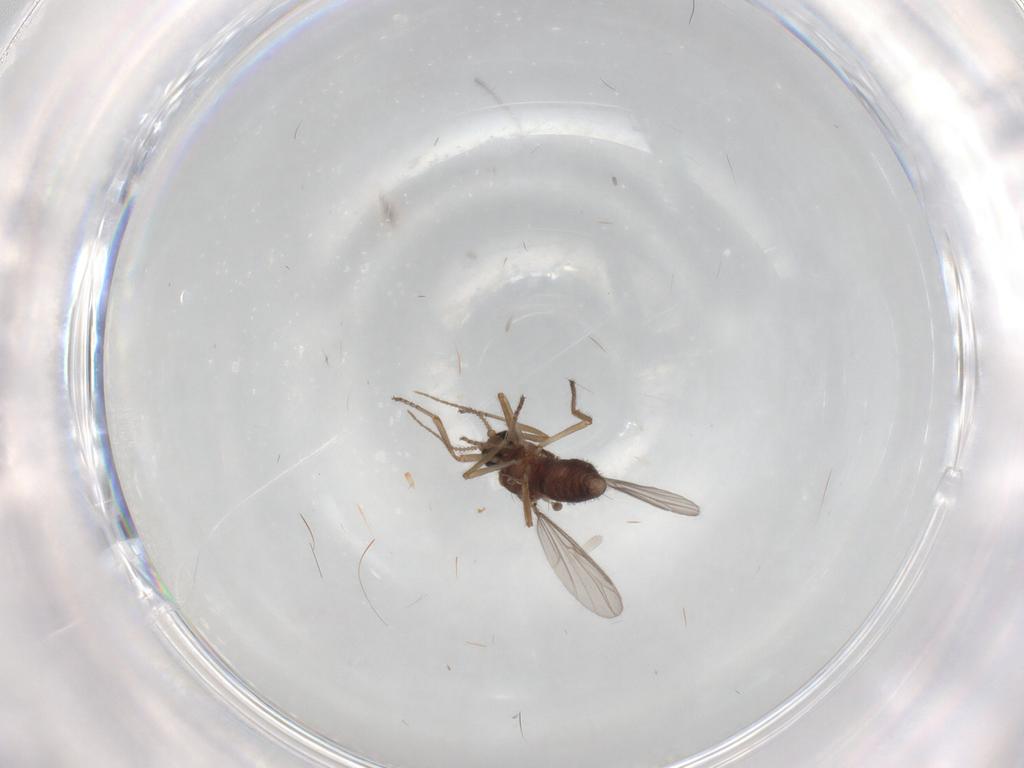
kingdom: Animalia
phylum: Arthropoda
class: Insecta
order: Diptera
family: Ceratopogonidae
